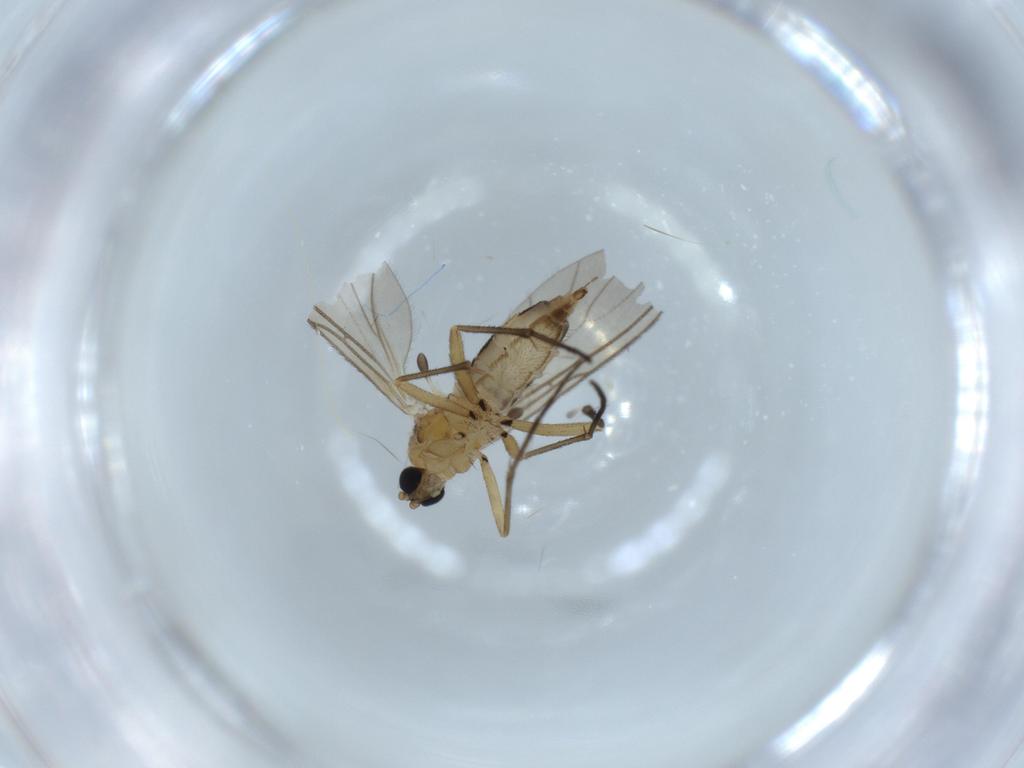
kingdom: Animalia
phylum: Arthropoda
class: Insecta
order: Diptera
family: Sciaridae
